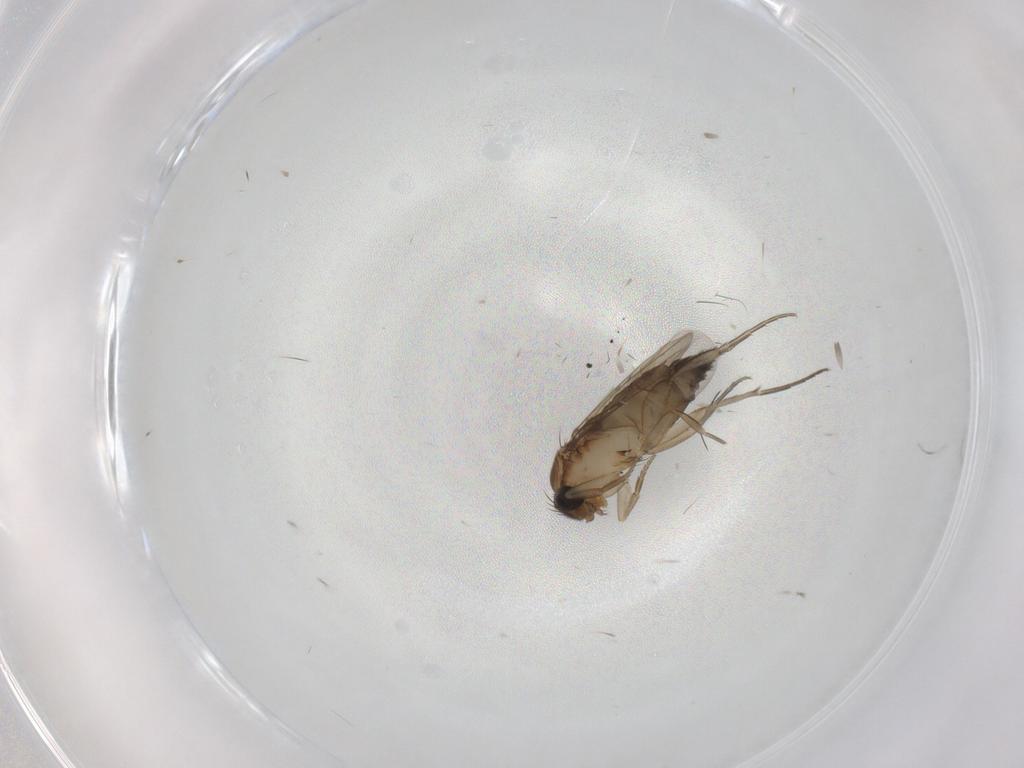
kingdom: Animalia
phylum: Arthropoda
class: Insecta
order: Diptera
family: Phoridae
